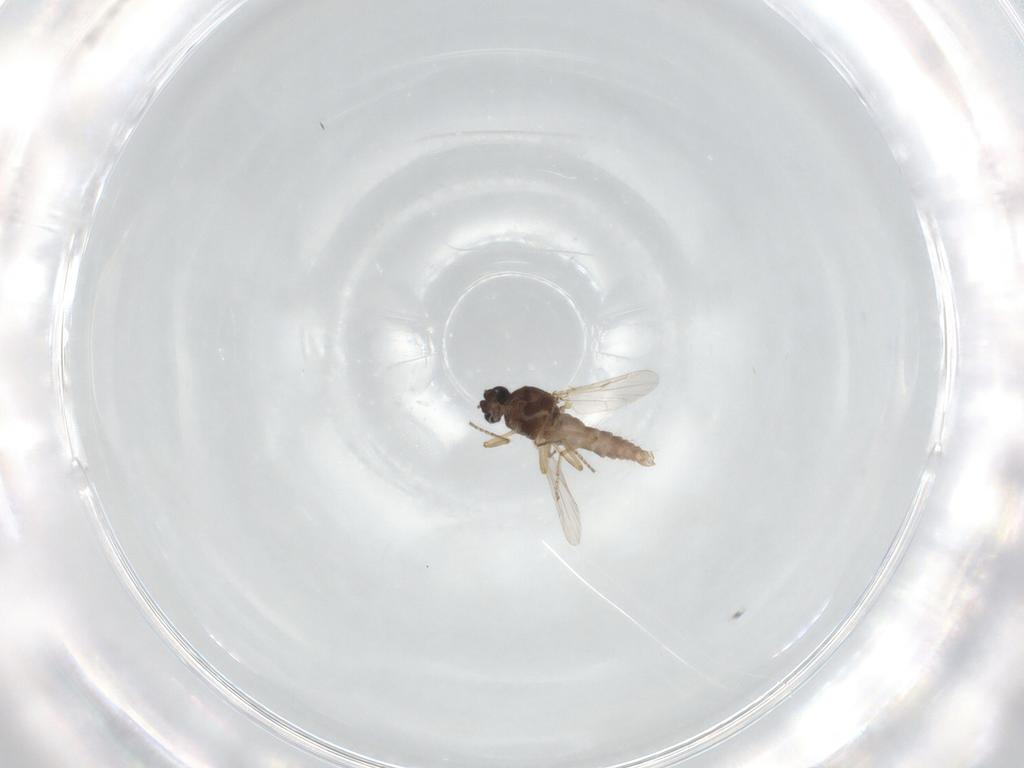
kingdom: Animalia
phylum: Arthropoda
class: Insecta
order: Diptera
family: Ceratopogonidae
